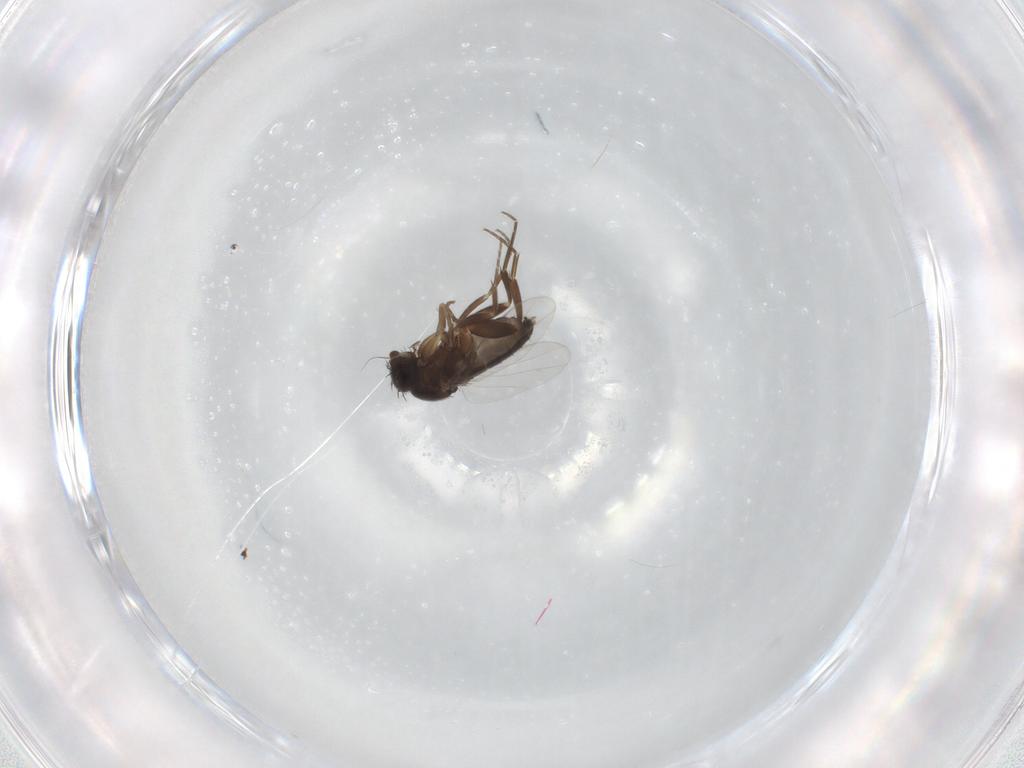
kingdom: Animalia
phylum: Arthropoda
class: Insecta
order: Diptera
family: Phoridae
